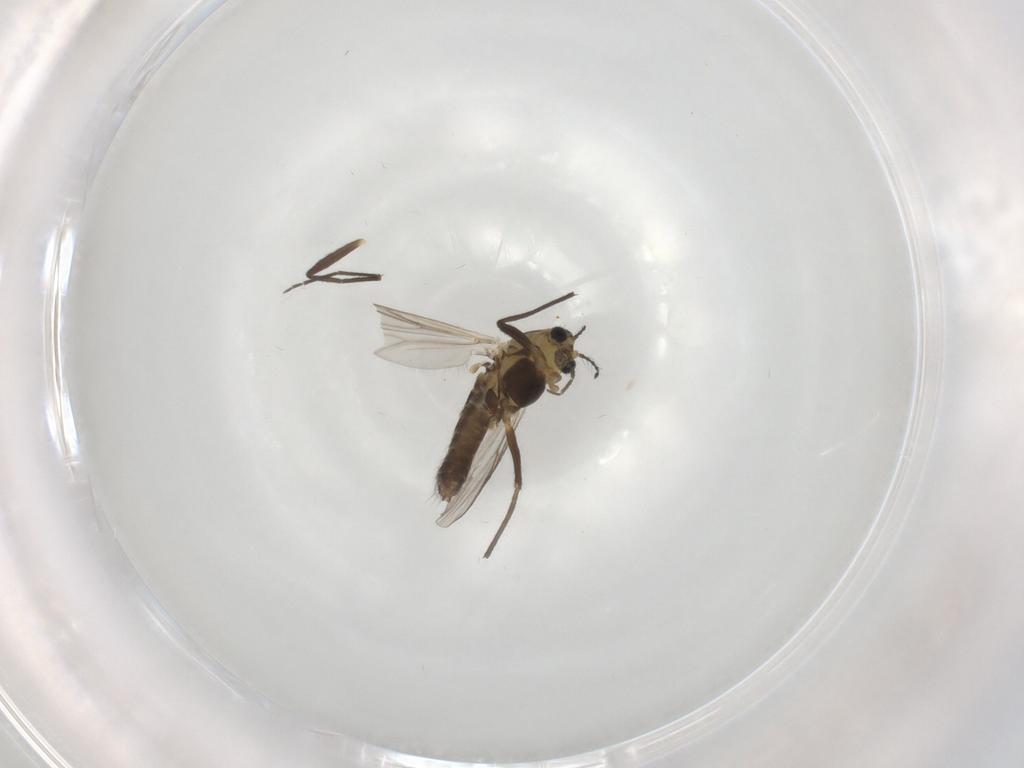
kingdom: Animalia
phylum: Arthropoda
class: Insecta
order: Diptera
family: Chironomidae
